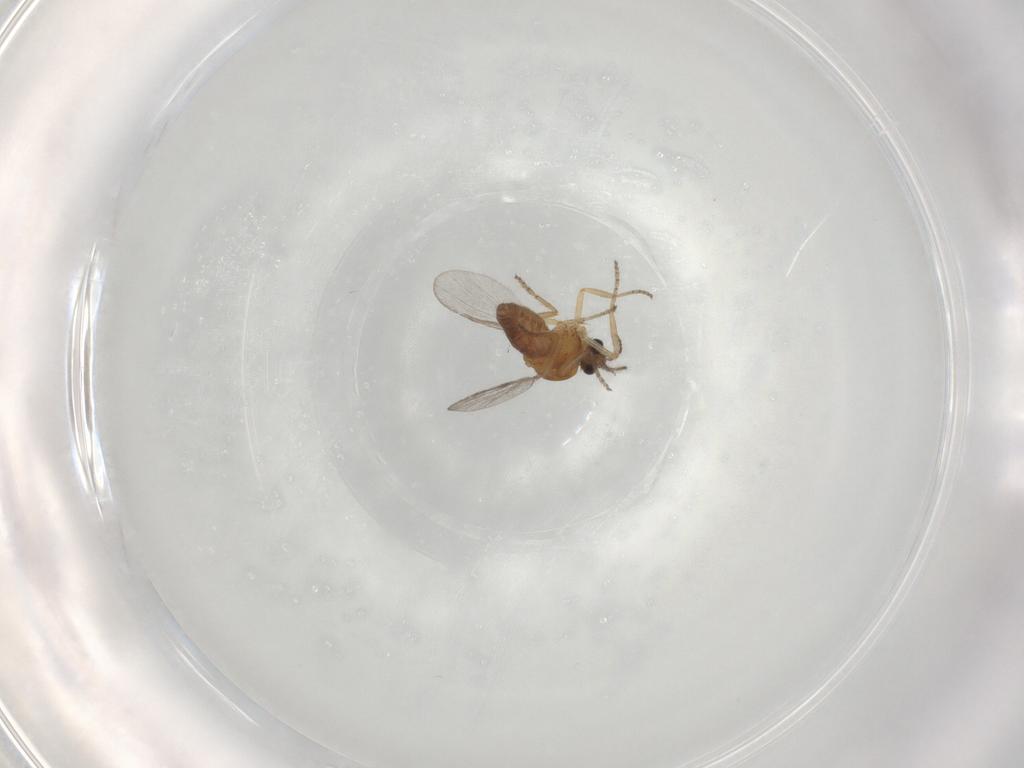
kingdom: Animalia
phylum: Arthropoda
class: Insecta
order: Diptera
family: Ceratopogonidae
